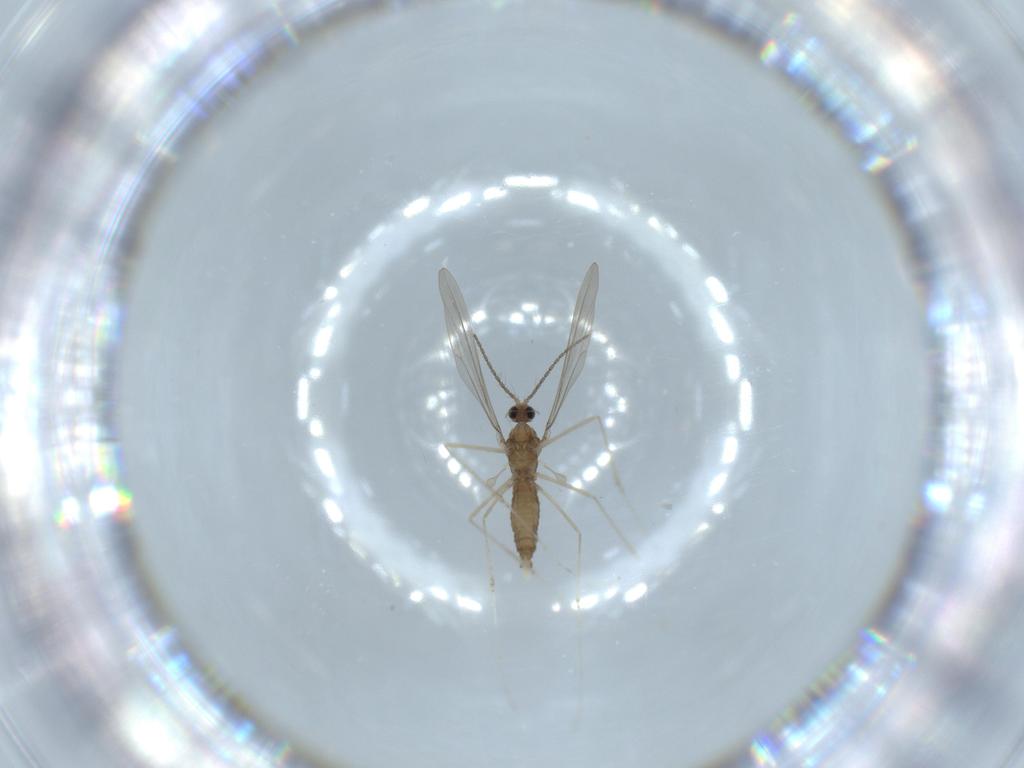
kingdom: Animalia
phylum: Arthropoda
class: Insecta
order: Diptera
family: Cecidomyiidae
